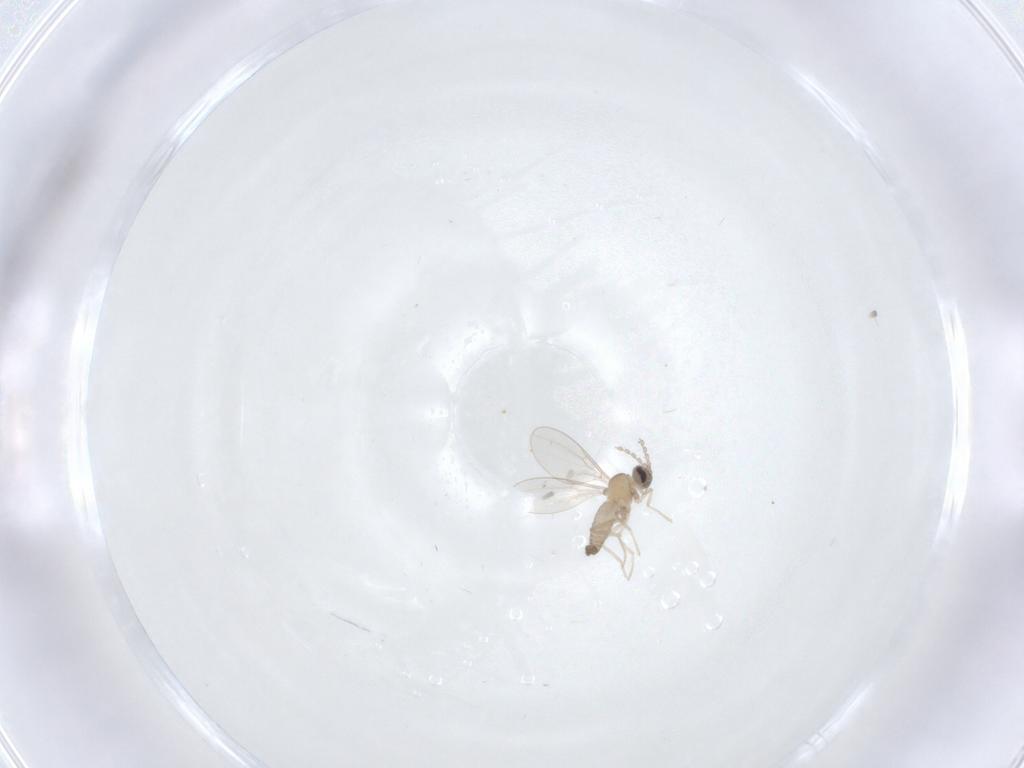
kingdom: Animalia
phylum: Arthropoda
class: Insecta
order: Diptera
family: Cecidomyiidae
